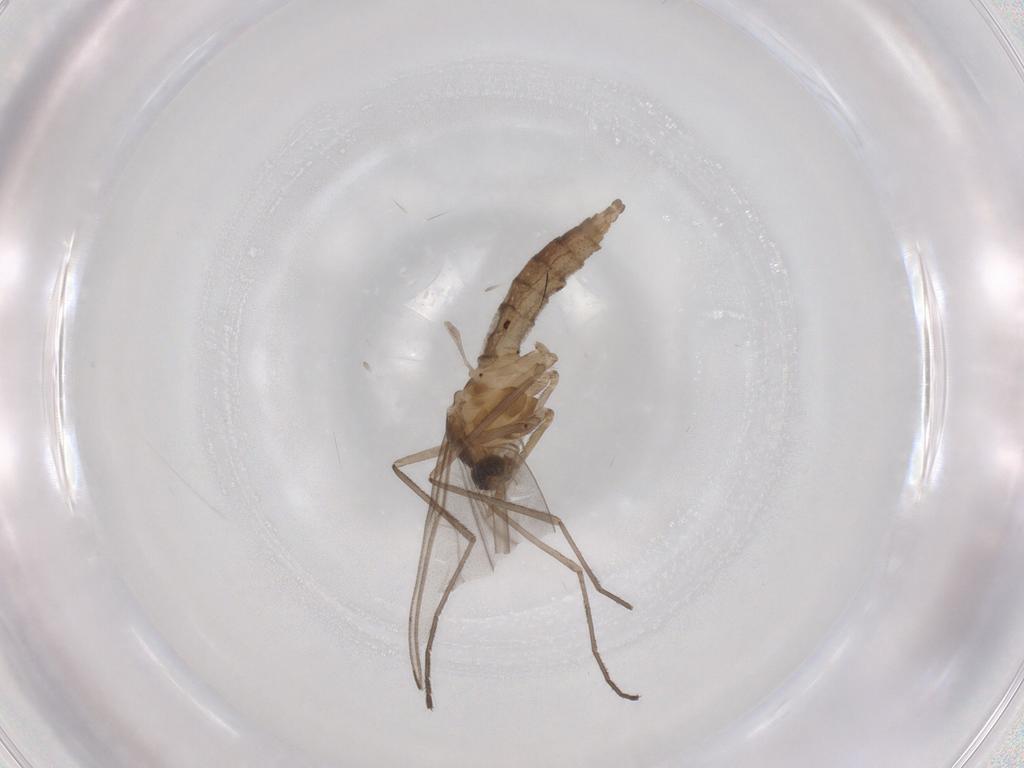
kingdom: Animalia
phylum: Arthropoda
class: Insecta
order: Diptera
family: Cecidomyiidae
